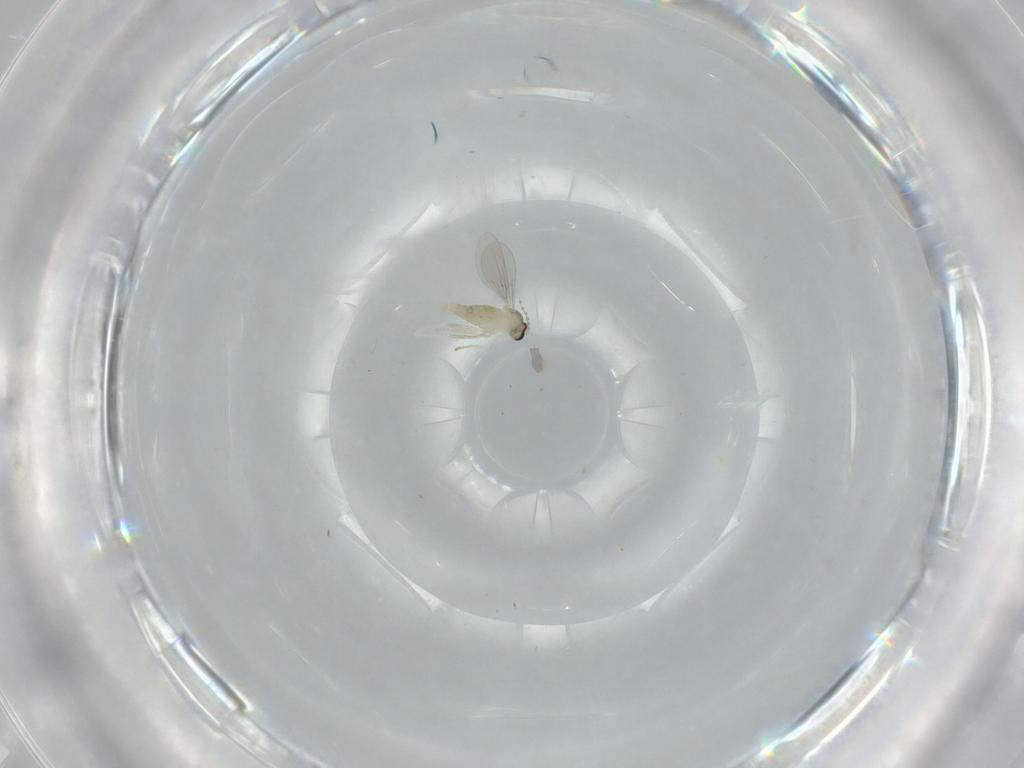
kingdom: Animalia
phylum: Arthropoda
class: Insecta
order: Diptera
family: Cecidomyiidae
